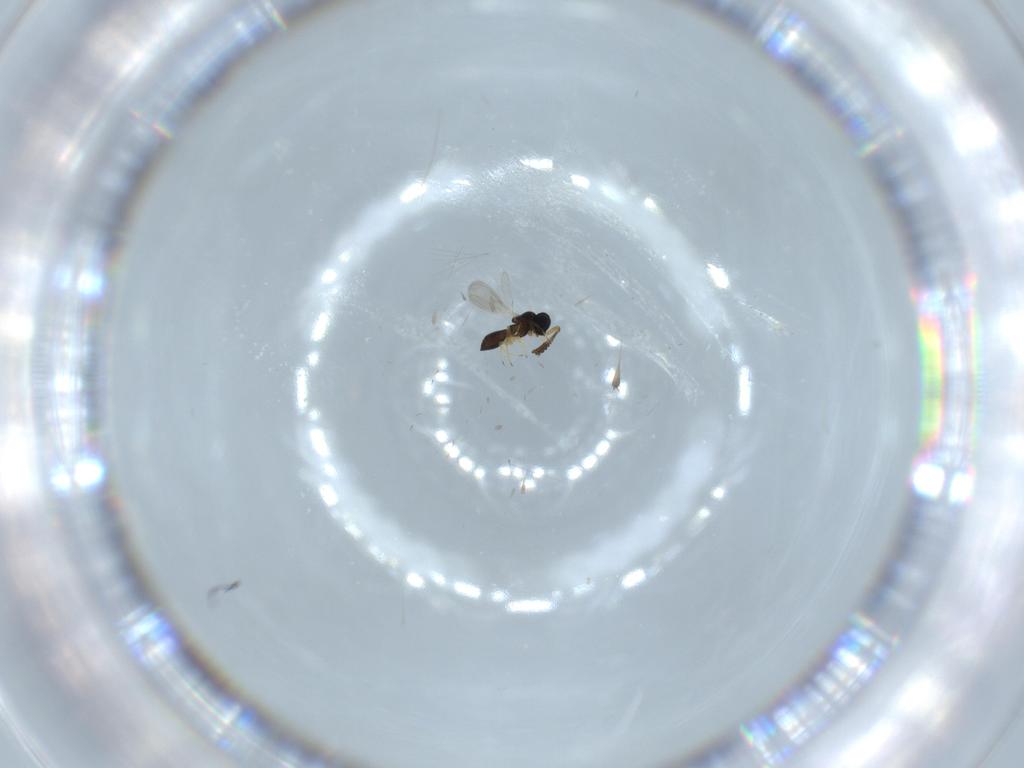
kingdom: Animalia
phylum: Arthropoda
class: Insecta
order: Hymenoptera
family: Scelionidae
